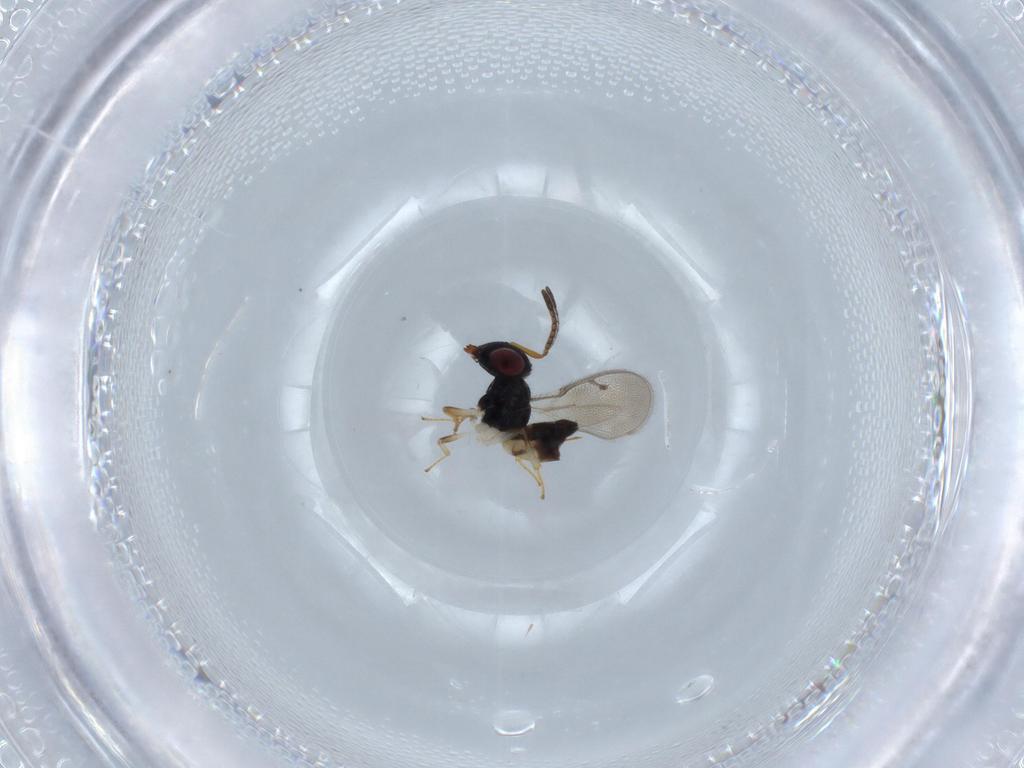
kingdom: Animalia
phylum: Arthropoda
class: Insecta
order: Hymenoptera
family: Pteromalidae
